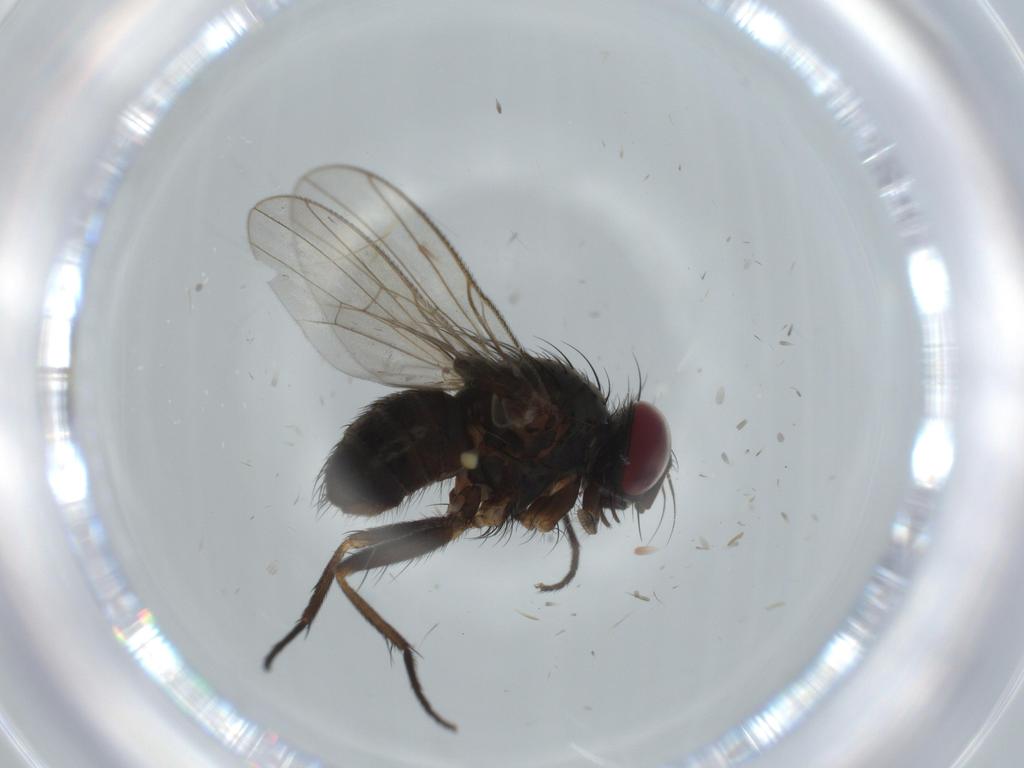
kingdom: Animalia
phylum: Arthropoda
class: Insecta
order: Diptera
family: Muscidae
